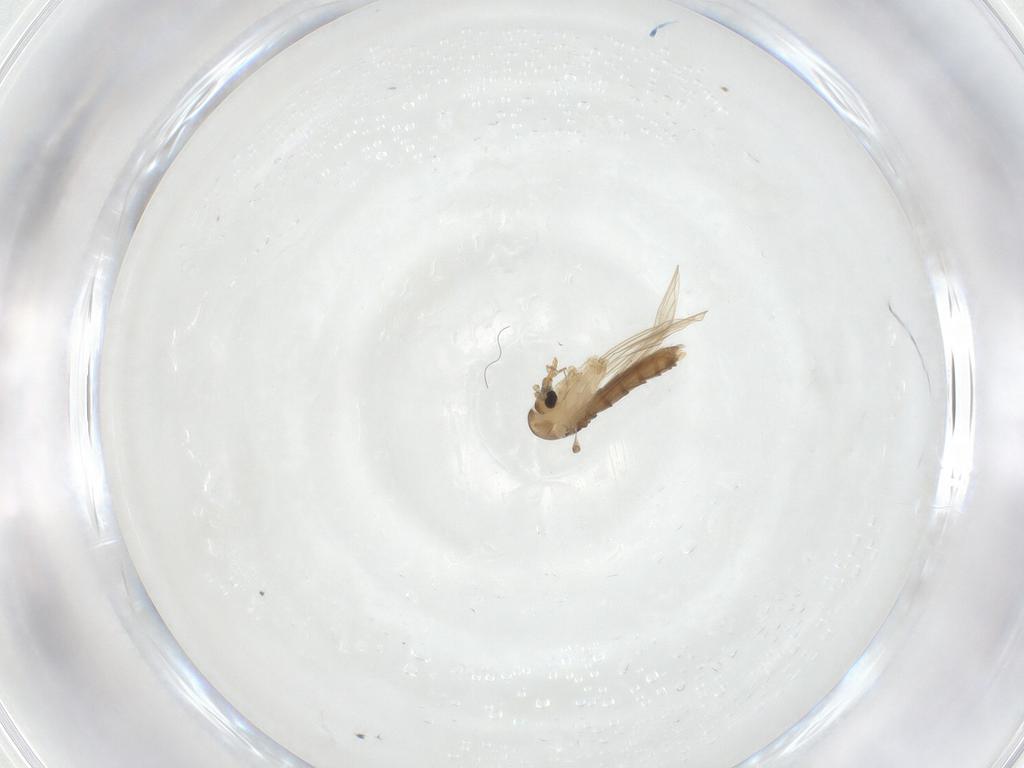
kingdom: Animalia
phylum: Arthropoda
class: Insecta
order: Diptera
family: Psychodidae
